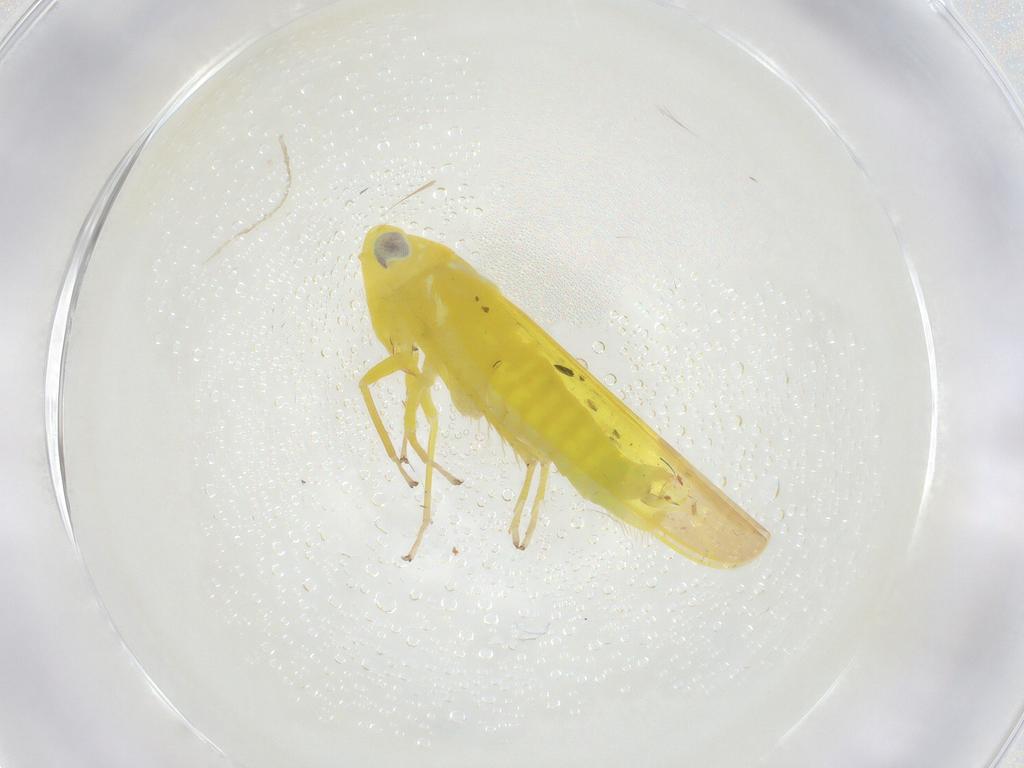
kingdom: Animalia
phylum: Arthropoda
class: Insecta
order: Hemiptera
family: Cicadellidae
